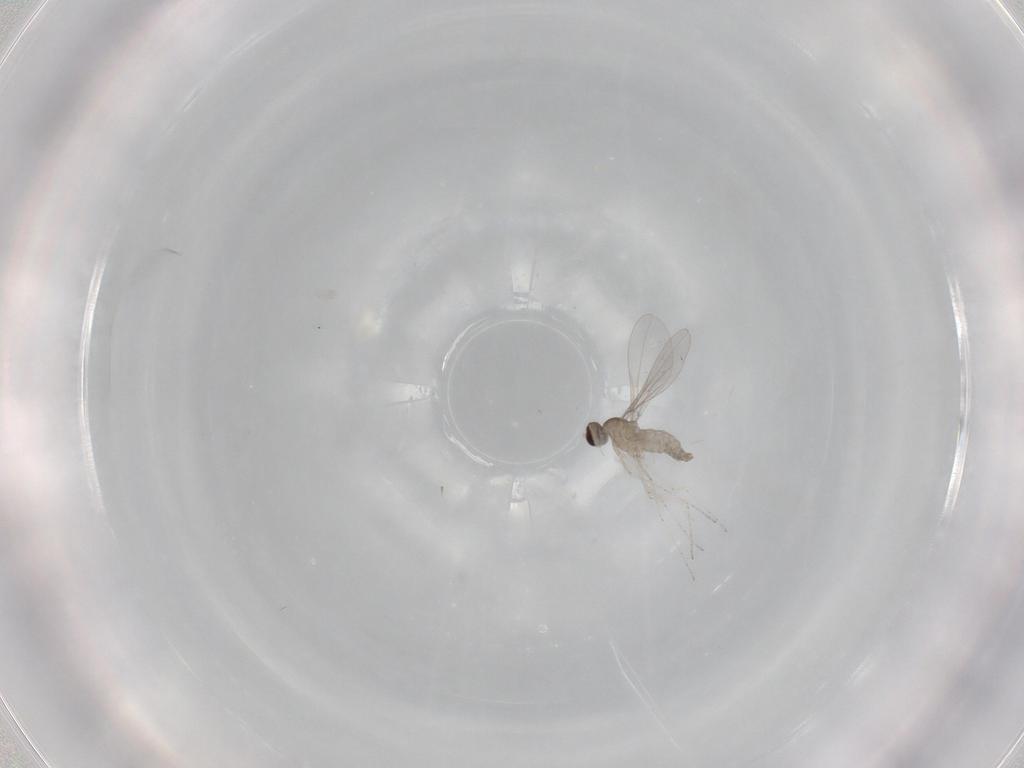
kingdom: Animalia
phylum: Arthropoda
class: Insecta
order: Diptera
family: Cecidomyiidae
